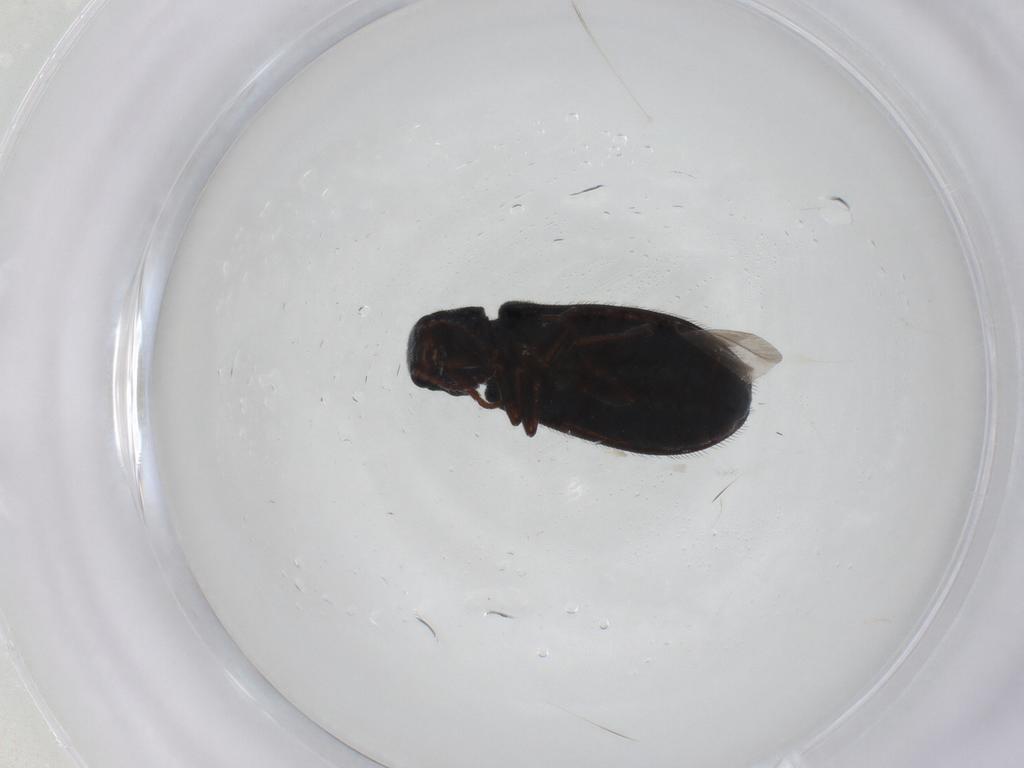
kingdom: Animalia
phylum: Arthropoda
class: Insecta
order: Coleoptera
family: Melyridae
